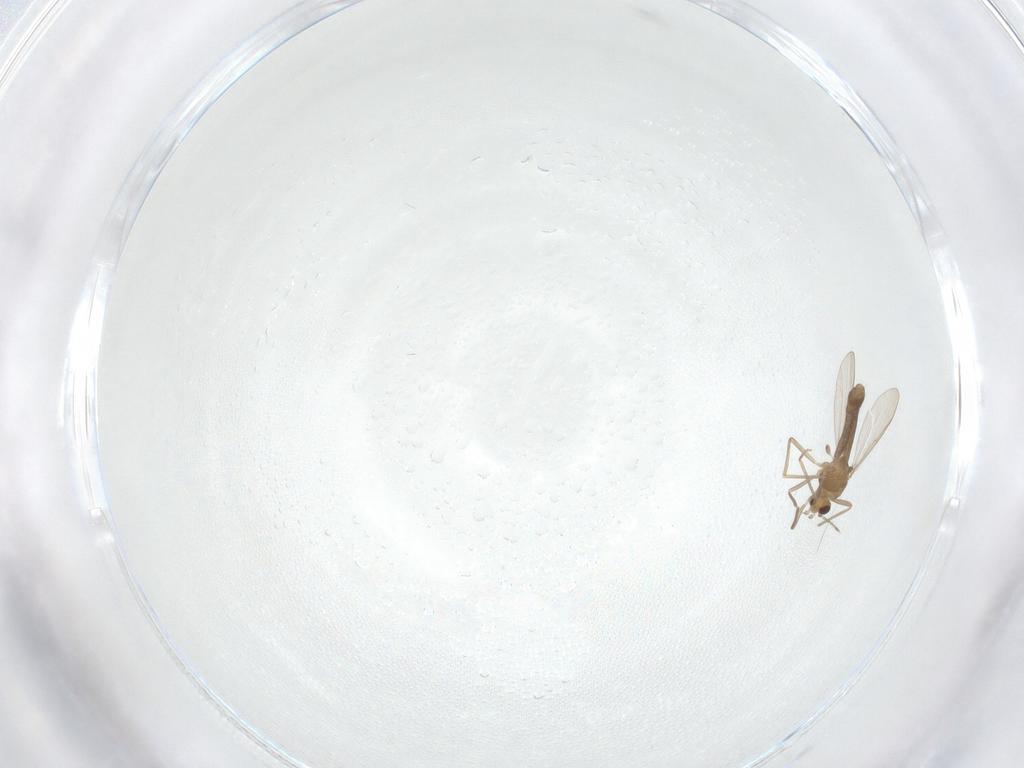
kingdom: Animalia
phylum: Arthropoda
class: Insecta
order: Diptera
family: Chironomidae
